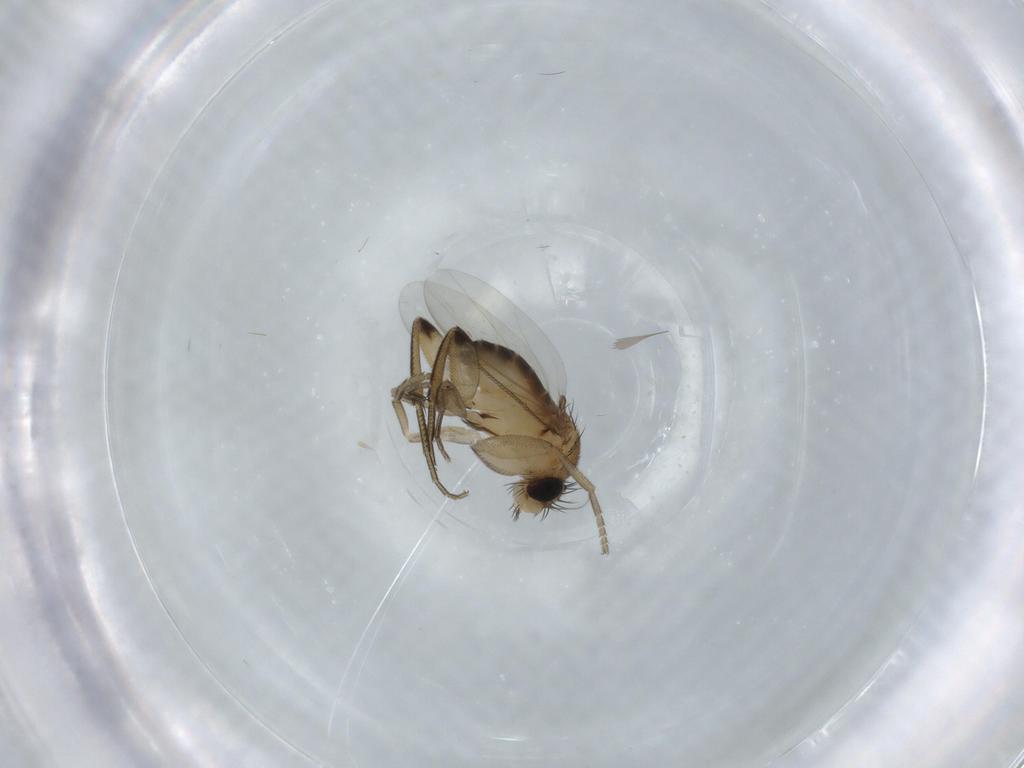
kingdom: Animalia
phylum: Arthropoda
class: Insecta
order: Diptera
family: Phoridae
